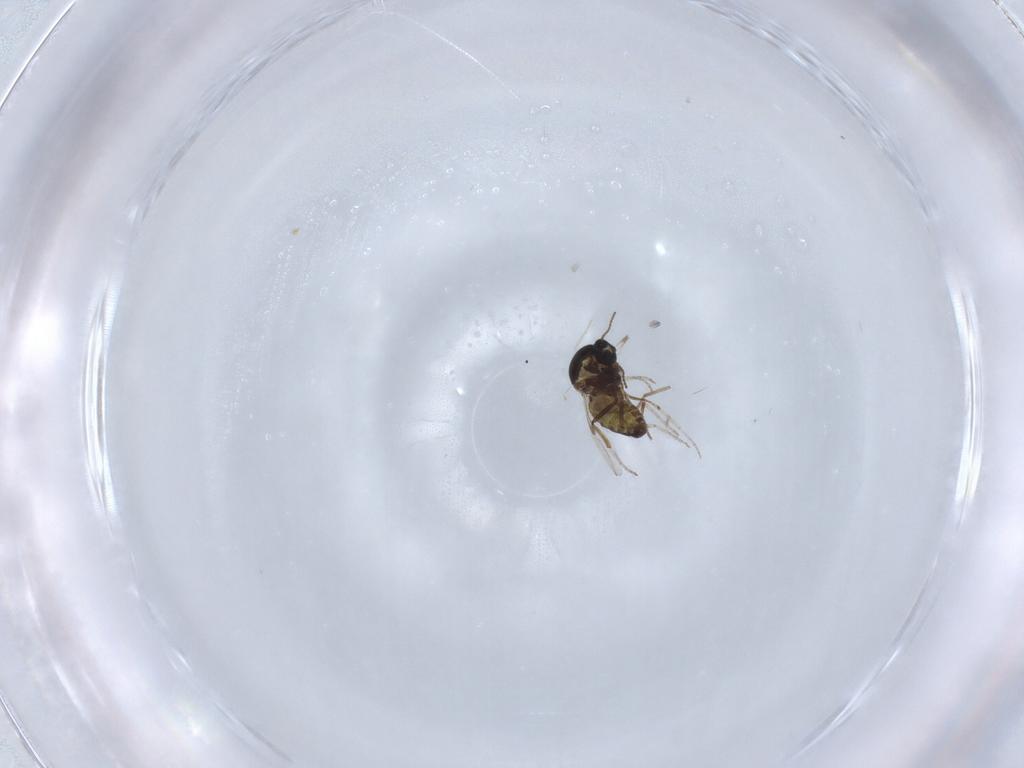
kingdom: Animalia
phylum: Arthropoda
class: Insecta
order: Diptera
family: Ceratopogonidae
